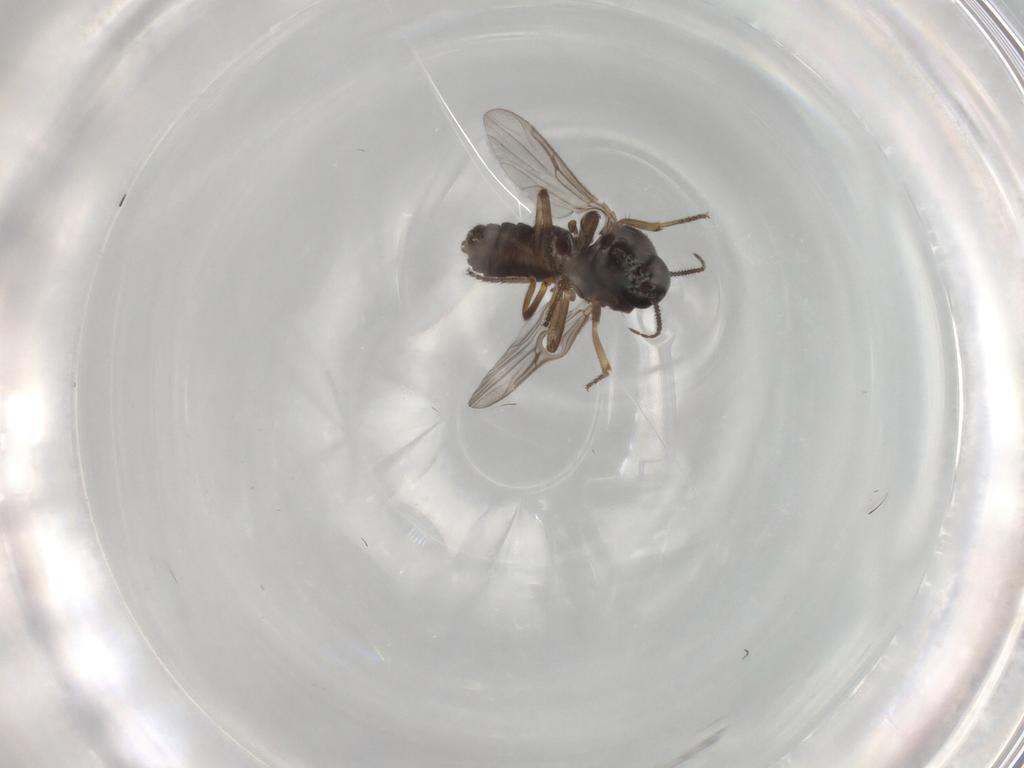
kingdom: Animalia
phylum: Arthropoda
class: Insecta
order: Diptera
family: Ceratopogonidae
